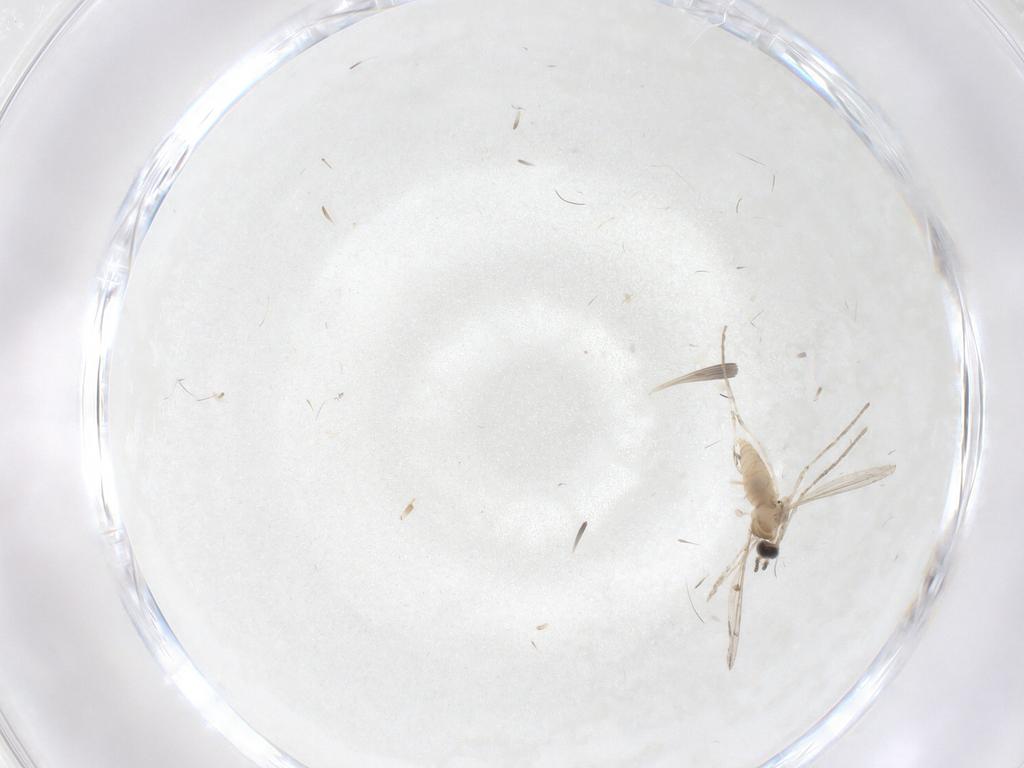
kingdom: Animalia
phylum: Arthropoda
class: Insecta
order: Diptera
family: Cecidomyiidae
